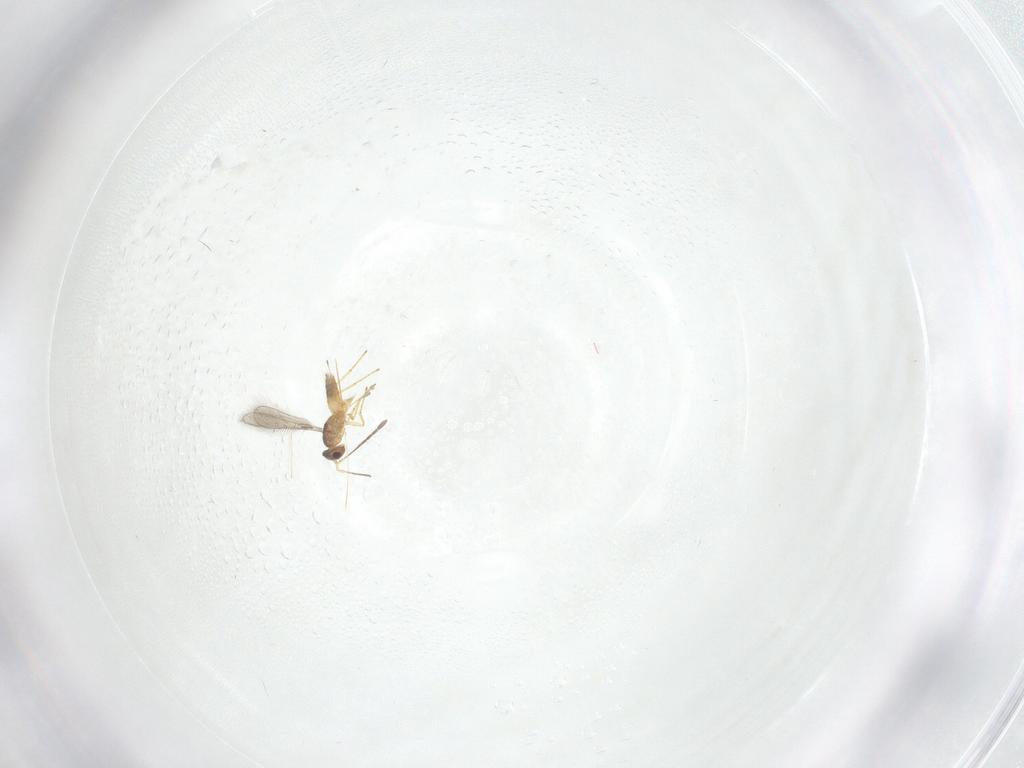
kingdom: Animalia
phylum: Arthropoda
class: Insecta
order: Hymenoptera
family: Mymaridae
